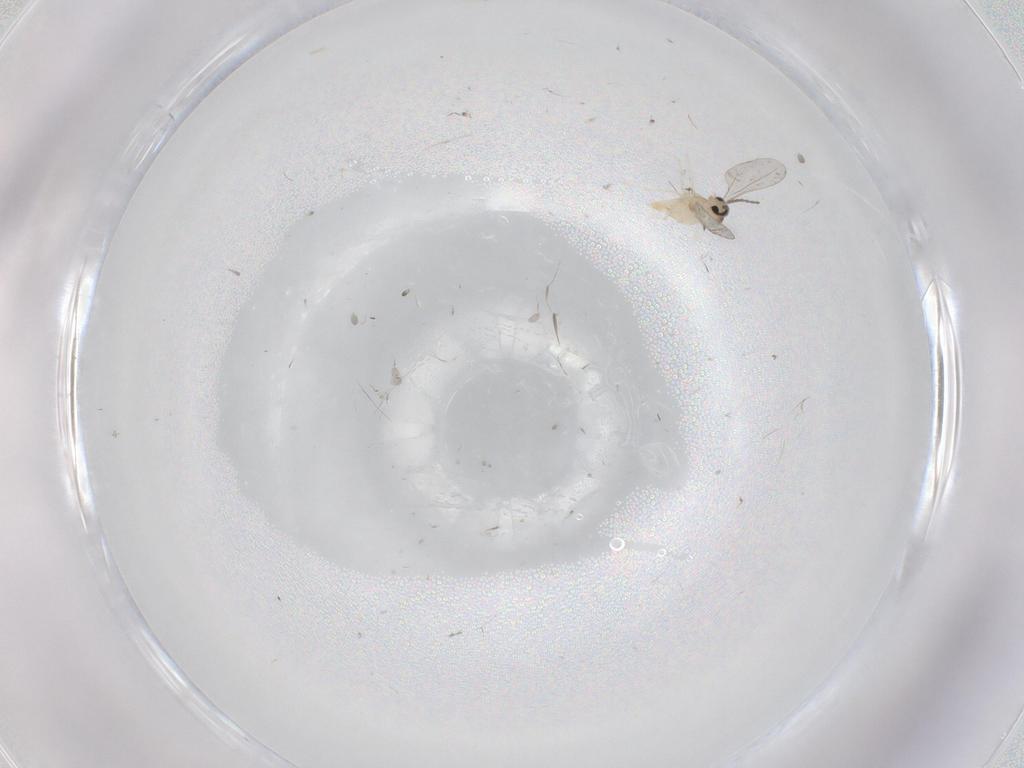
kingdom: Animalia
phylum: Arthropoda
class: Insecta
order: Diptera
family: Cecidomyiidae
